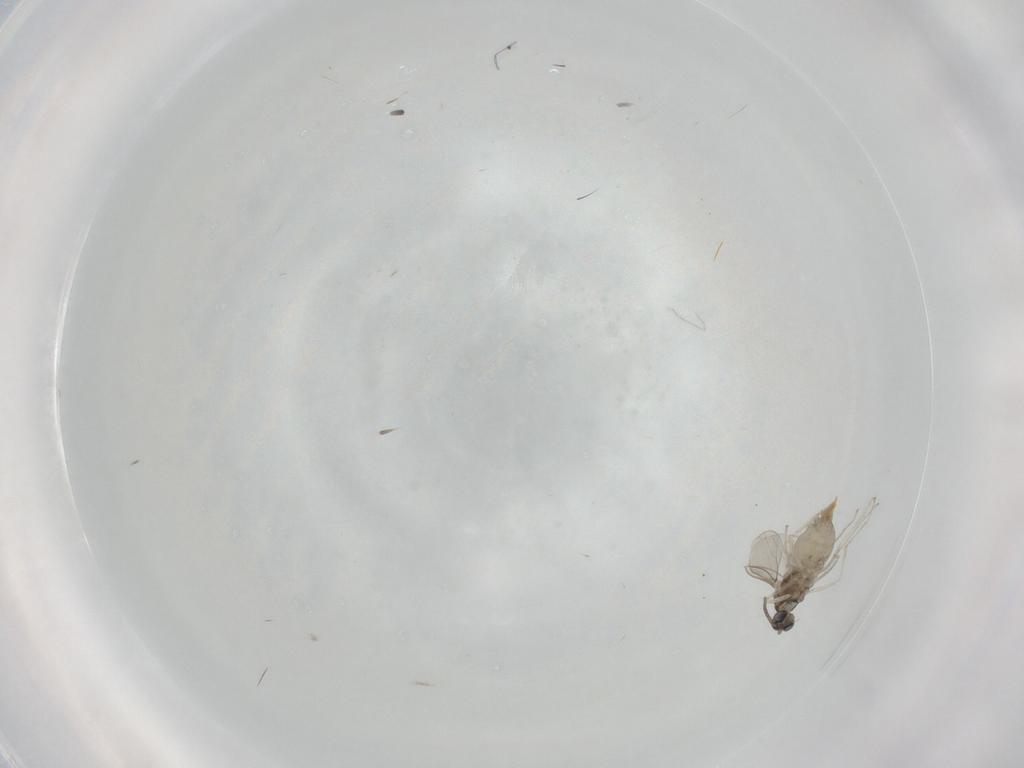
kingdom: Animalia
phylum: Arthropoda
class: Insecta
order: Diptera
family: Cecidomyiidae
